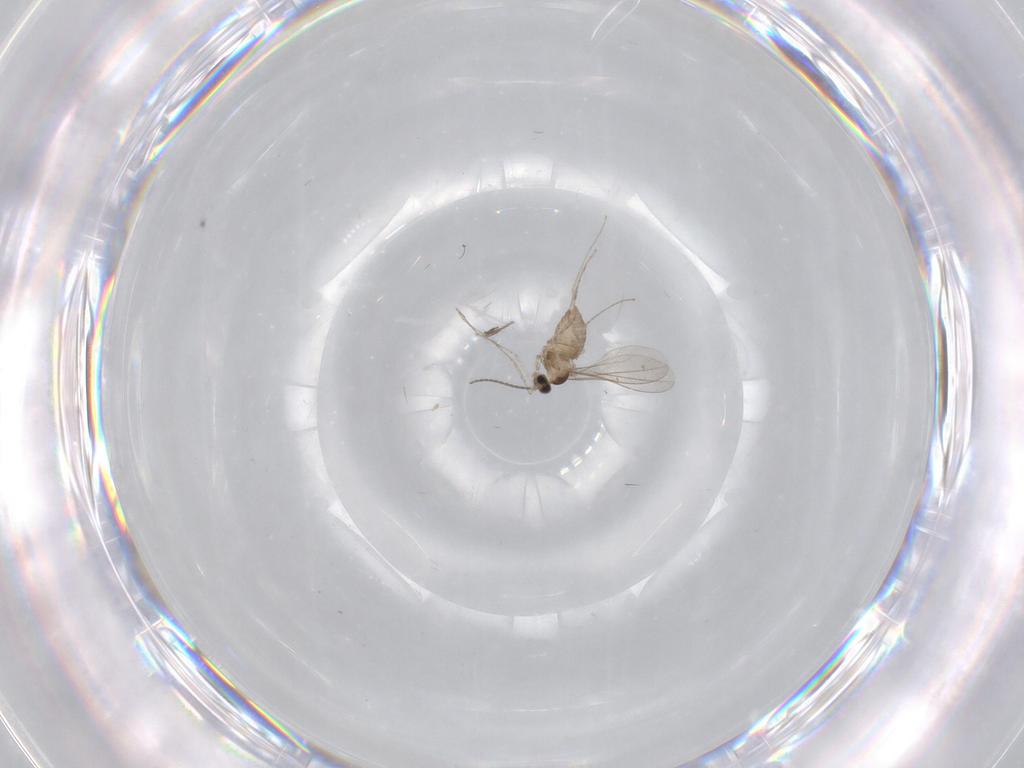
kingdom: Animalia
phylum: Arthropoda
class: Insecta
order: Diptera
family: Cecidomyiidae
